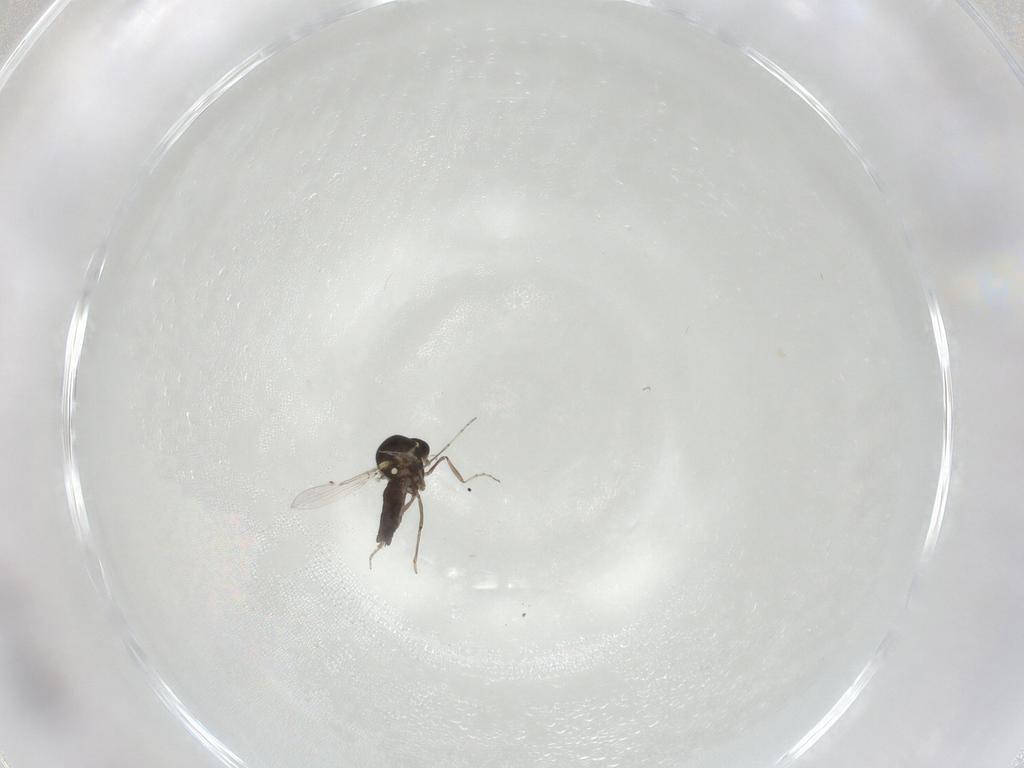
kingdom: Animalia
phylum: Arthropoda
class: Insecta
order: Diptera
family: Ceratopogonidae
